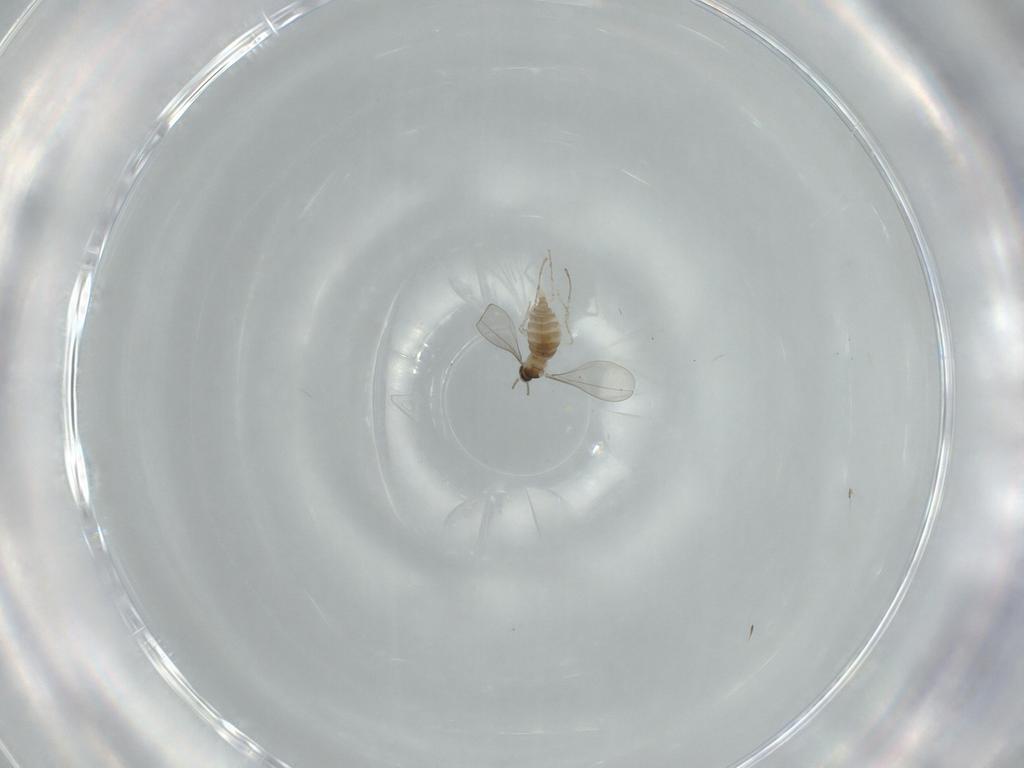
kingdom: Animalia
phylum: Arthropoda
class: Insecta
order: Diptera
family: Cecidomyiidae
